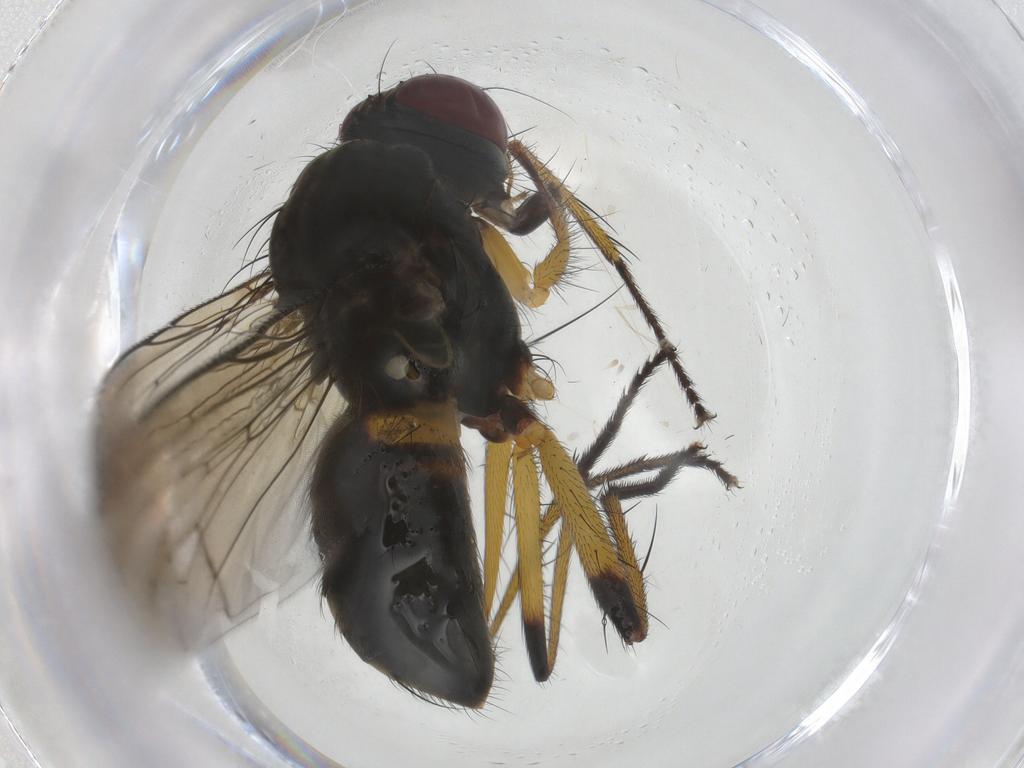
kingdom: Animalia
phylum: Arthropoda
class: Insecta
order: Diptera
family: Muscidae
